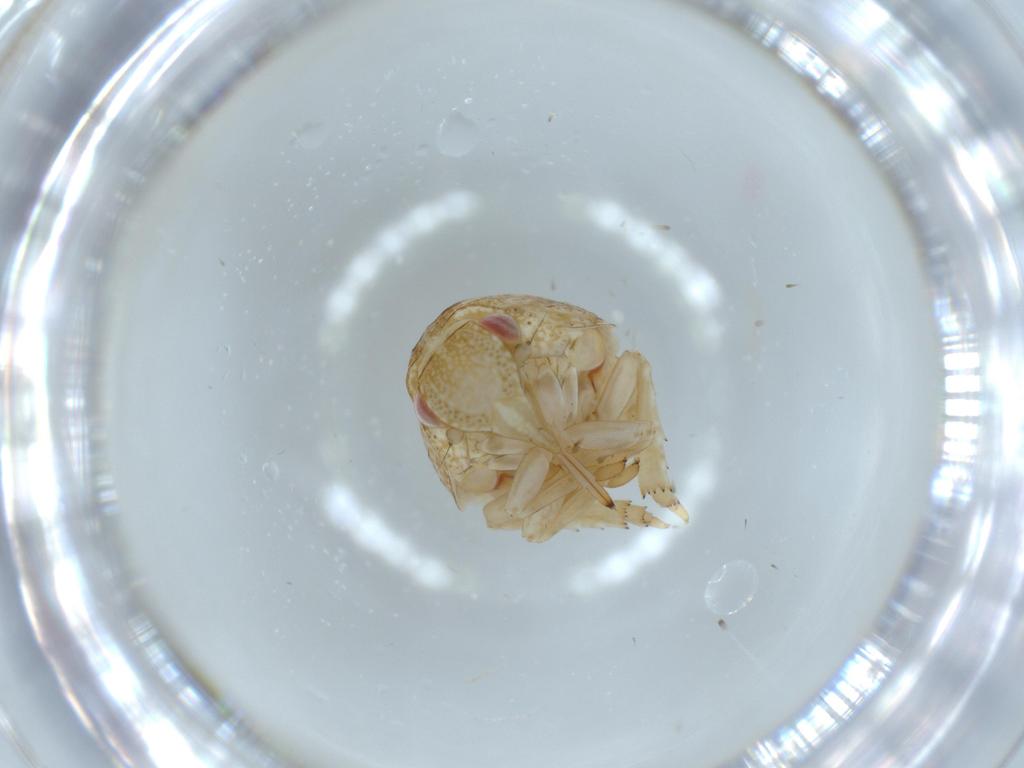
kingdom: Animalia
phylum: Arthropoda
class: Insecta
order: Hemiptera
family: Acanaloniidae
